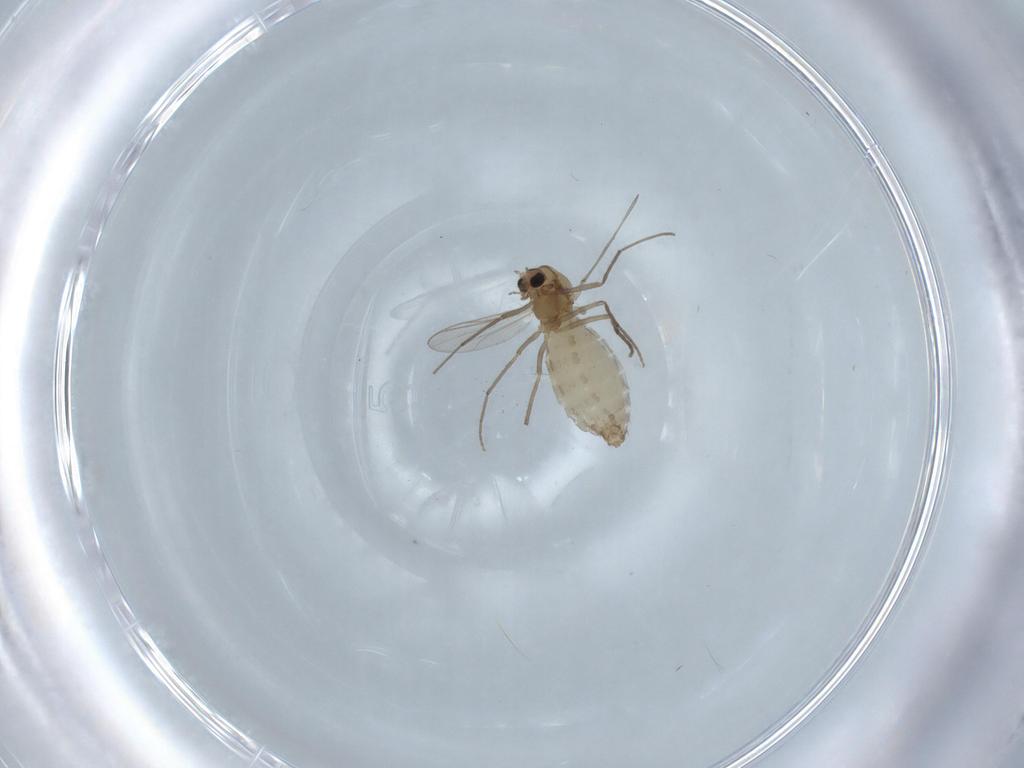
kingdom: Animalia
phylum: Arthropoda
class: Insecta
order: Diptera
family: Chironomidae
